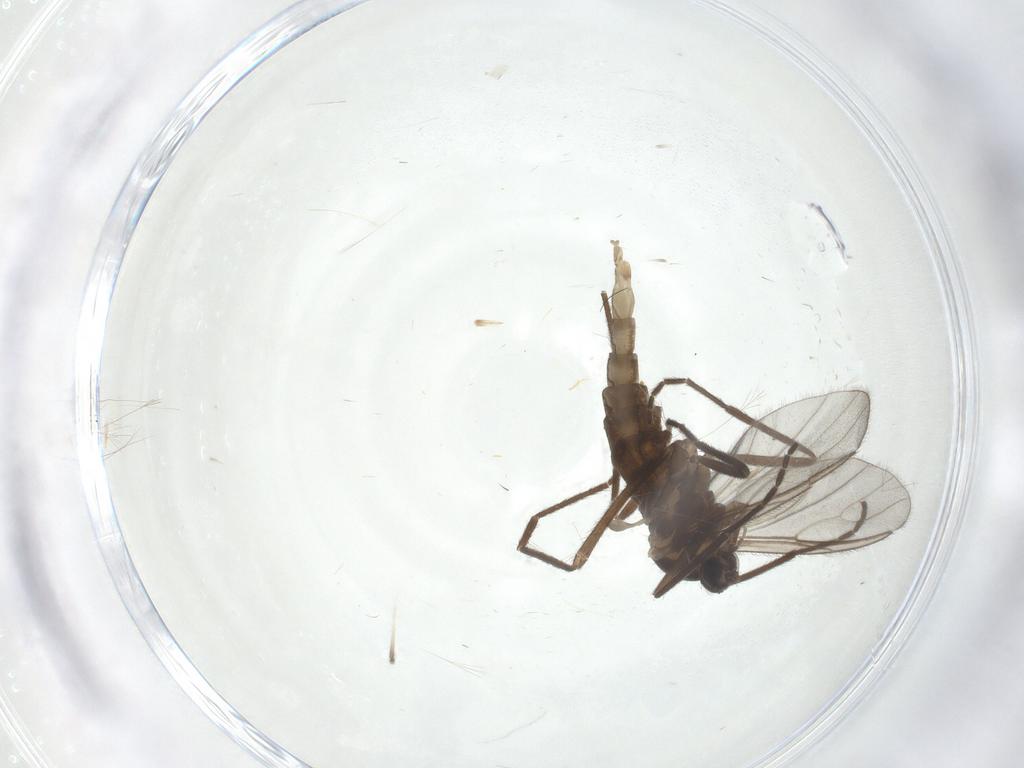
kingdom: Animalia
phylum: Arthropoda
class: Insecta
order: Diptera
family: Cecidomyiidae
